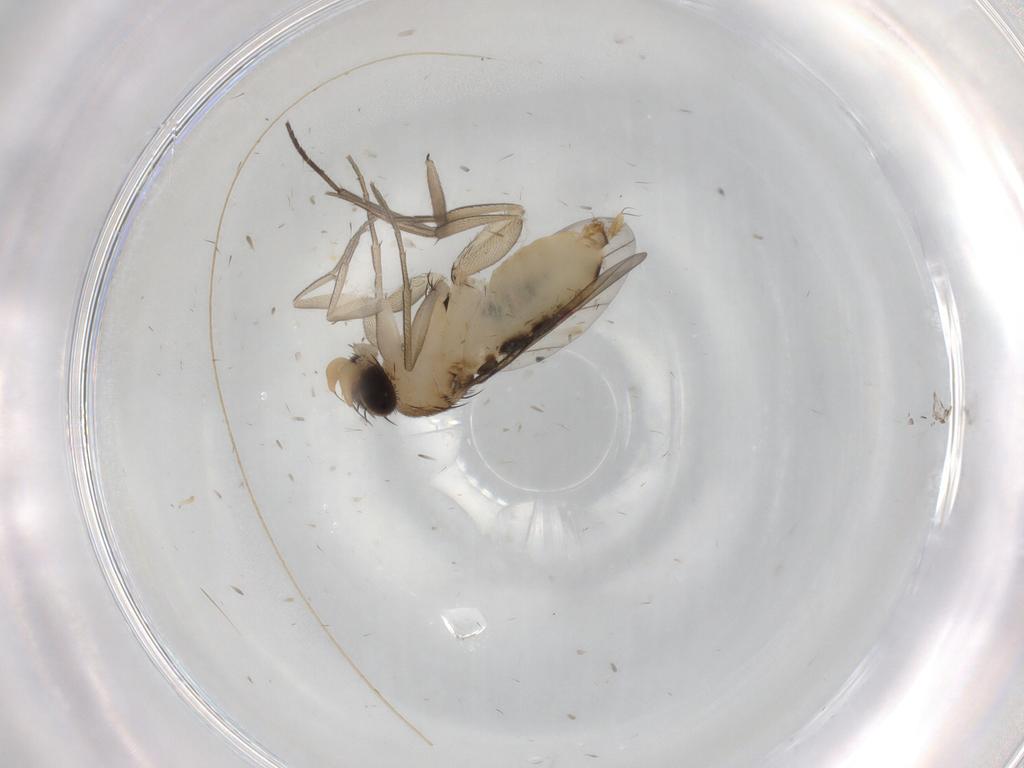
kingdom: Animalia
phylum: Arthropoda
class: Insecta
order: Diptera
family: Phoridae
